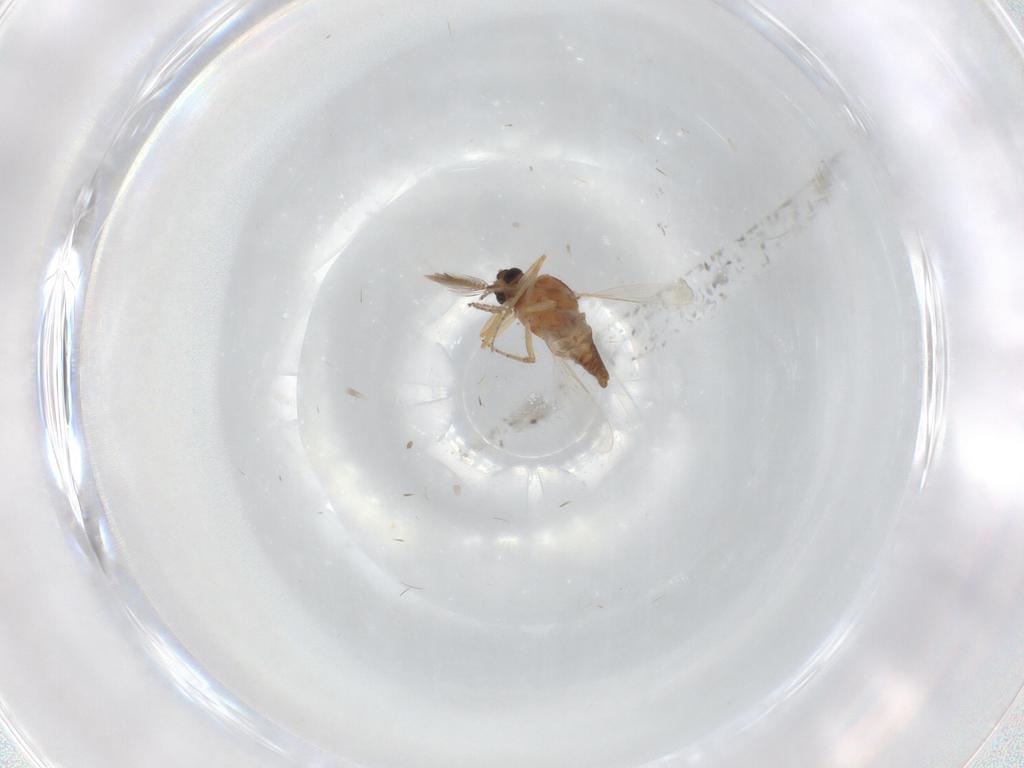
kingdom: Animalia
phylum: Arthropoda
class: Insecta
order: Diptera
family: Ceratopogonidae
